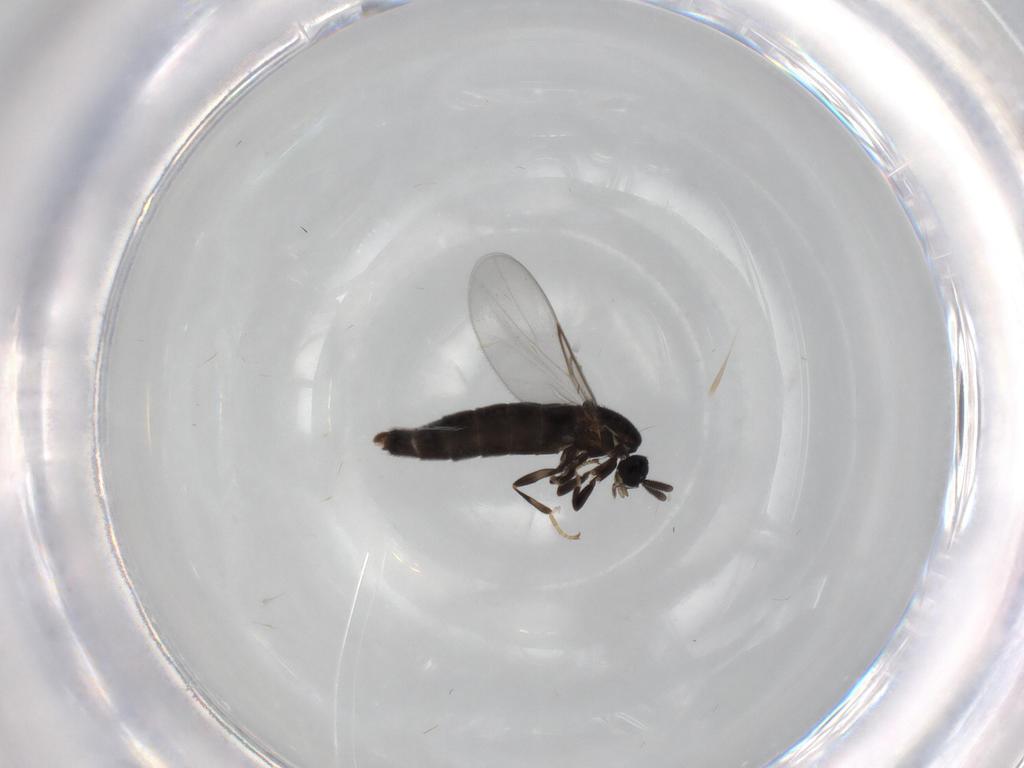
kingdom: Animalia
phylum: Arthropoda
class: Insecta
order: Diptera
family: Scatopsidae
